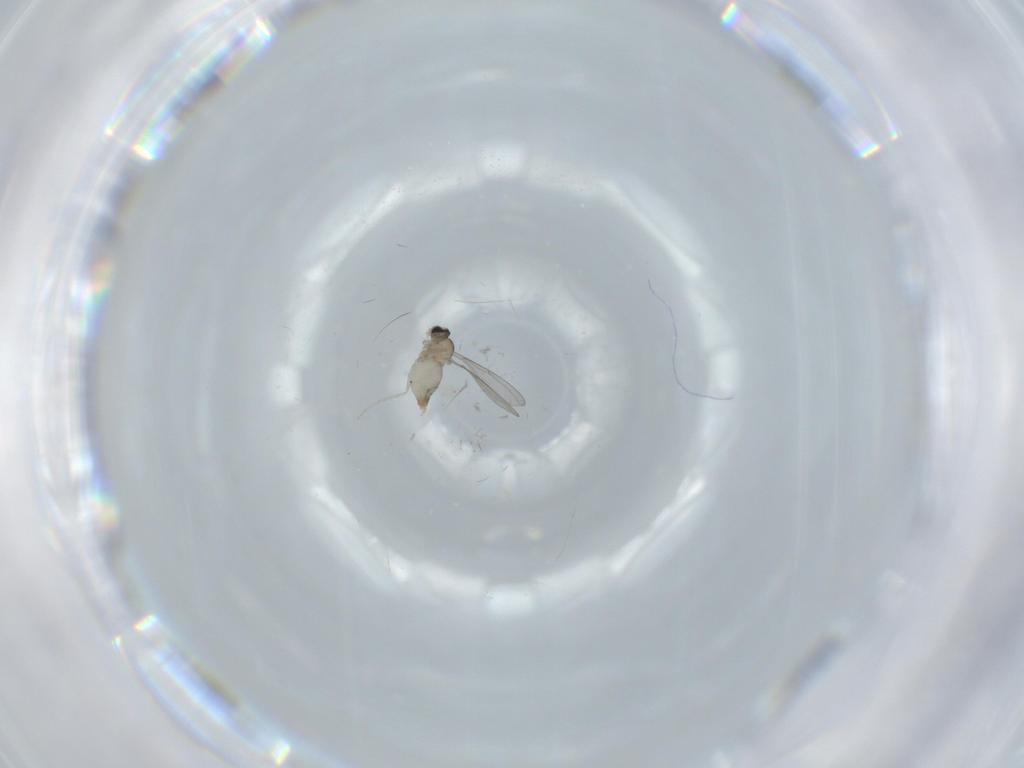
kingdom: Animalia
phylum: Arthropoda
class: Insecta
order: Diptera
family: Cecidomyiidae
